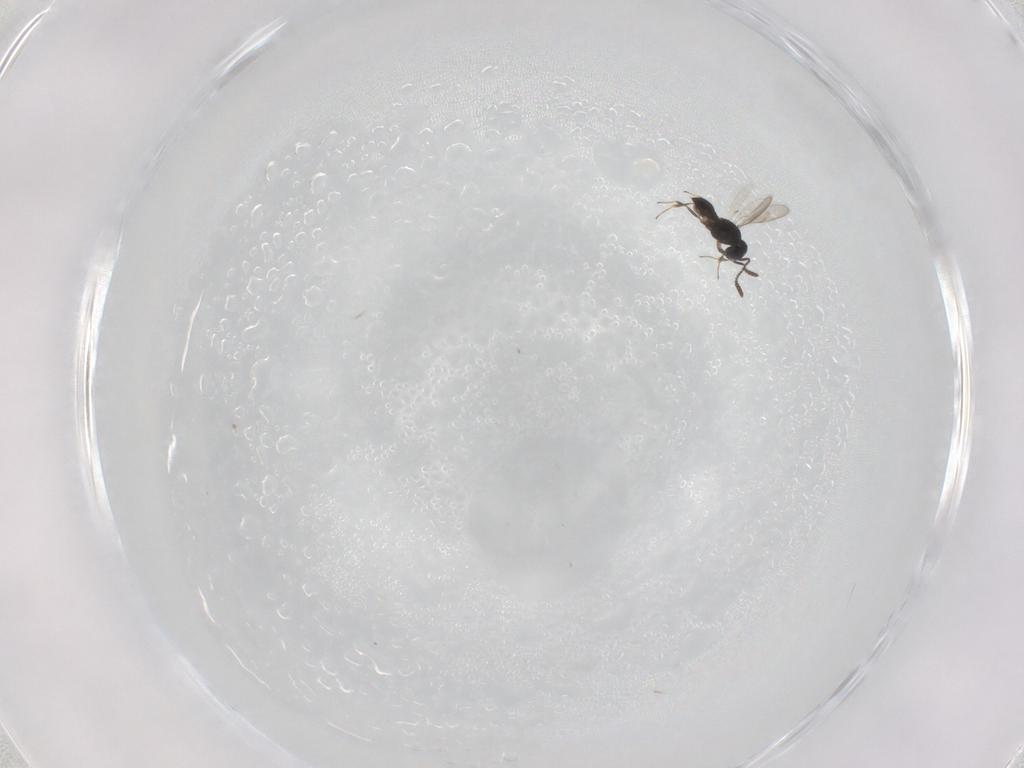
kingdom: Animalia
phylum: Arthropoda
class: Insecta
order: Hymenoptera
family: Scelionidae
